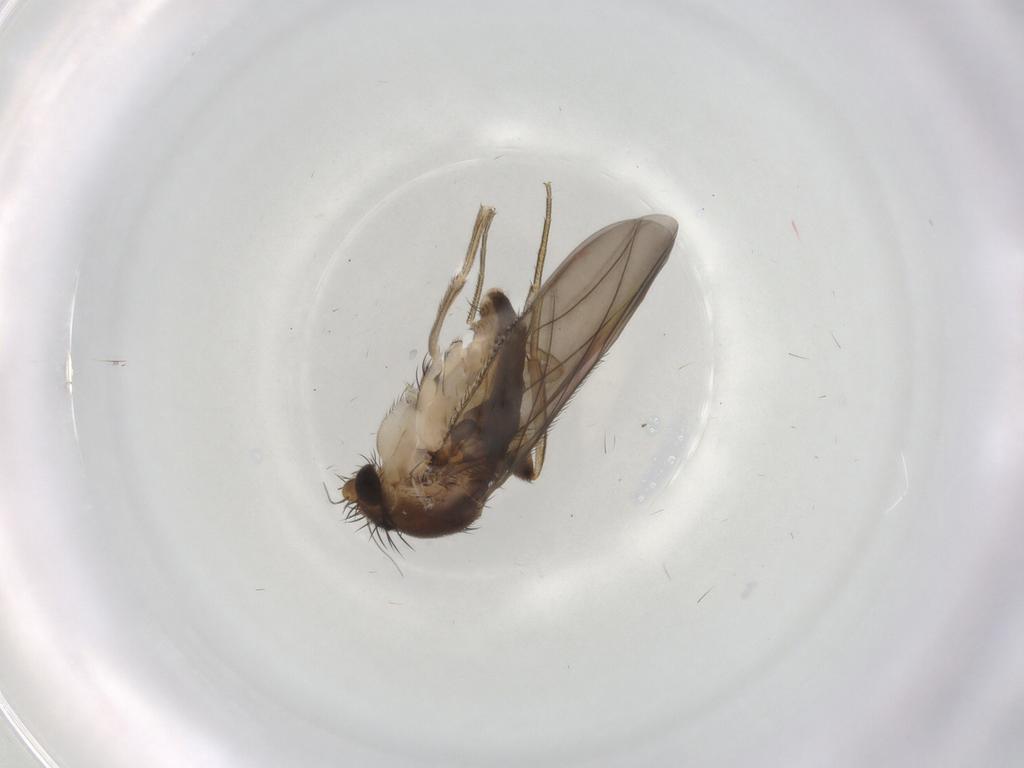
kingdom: Animalia
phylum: Arthropoda
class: Insecta
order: Diptera
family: Phoridae
